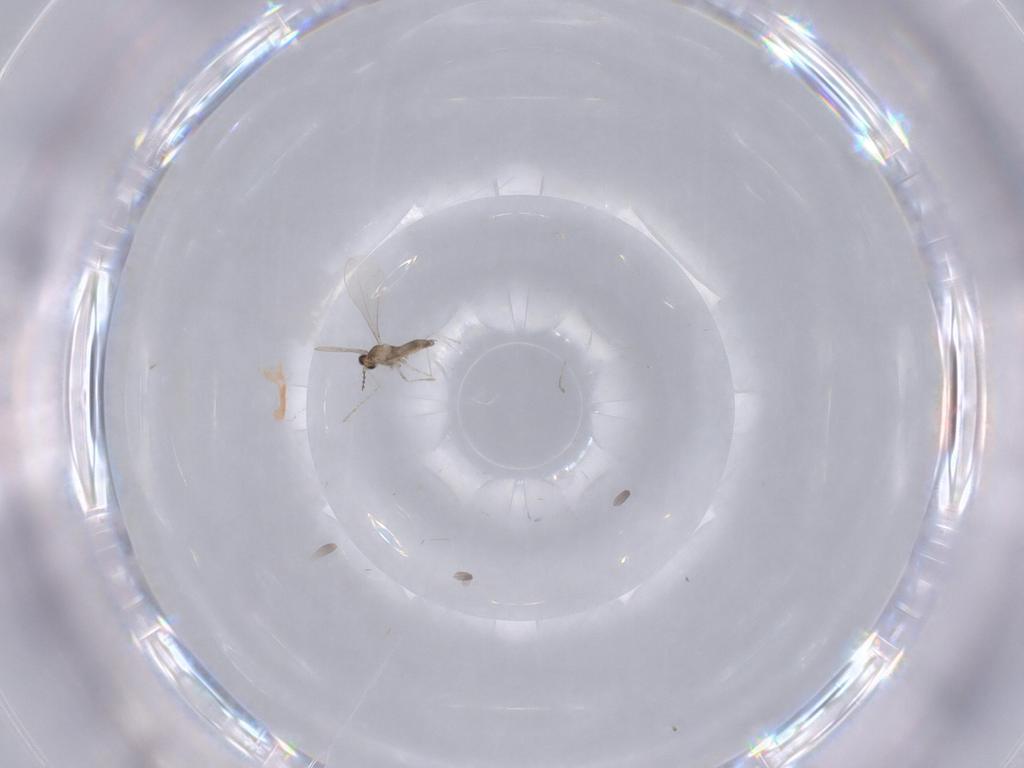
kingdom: Animalia
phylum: Arthropoda
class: Insecta
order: Diptera
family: Cecidomyiidae
